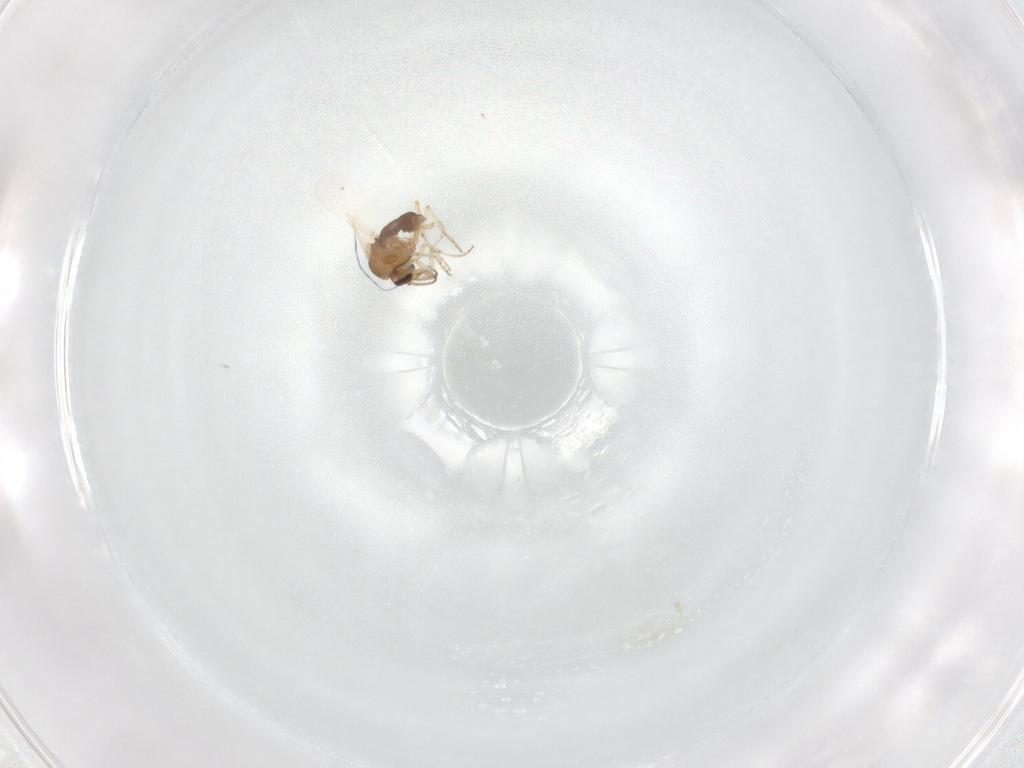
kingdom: Animalia
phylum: Arthropoda
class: Insecta
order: Diptera
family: Ceratopogonidae
